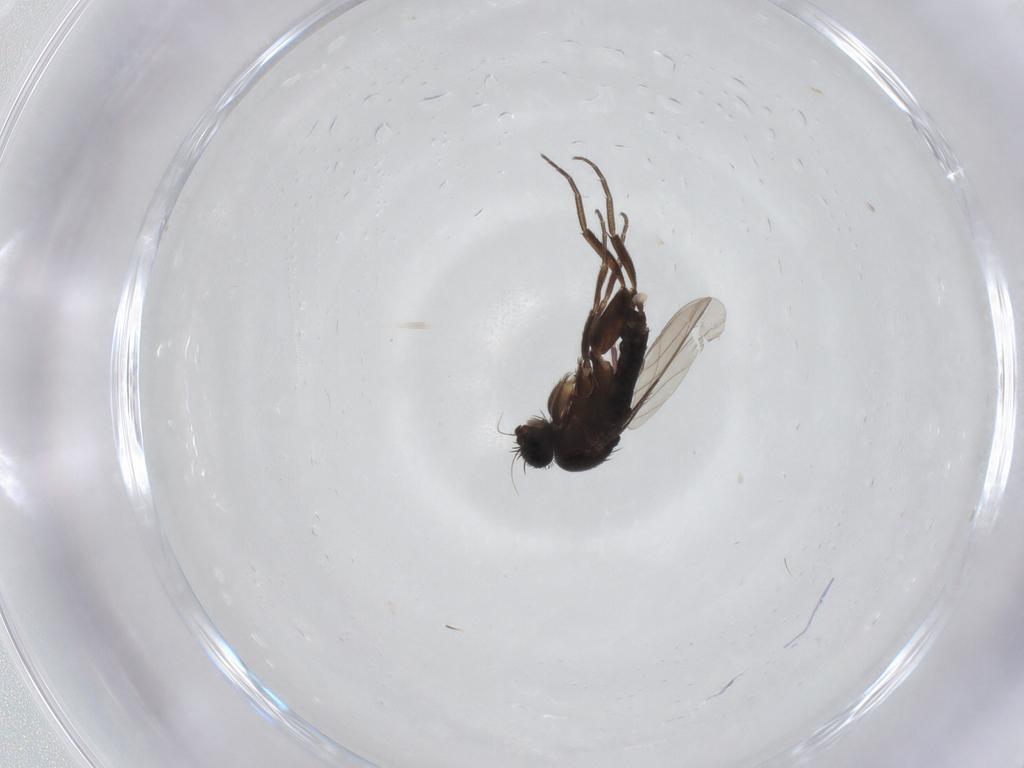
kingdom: Animalia
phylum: Arthropoda
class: Insecta
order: Diptera
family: Phoridae
